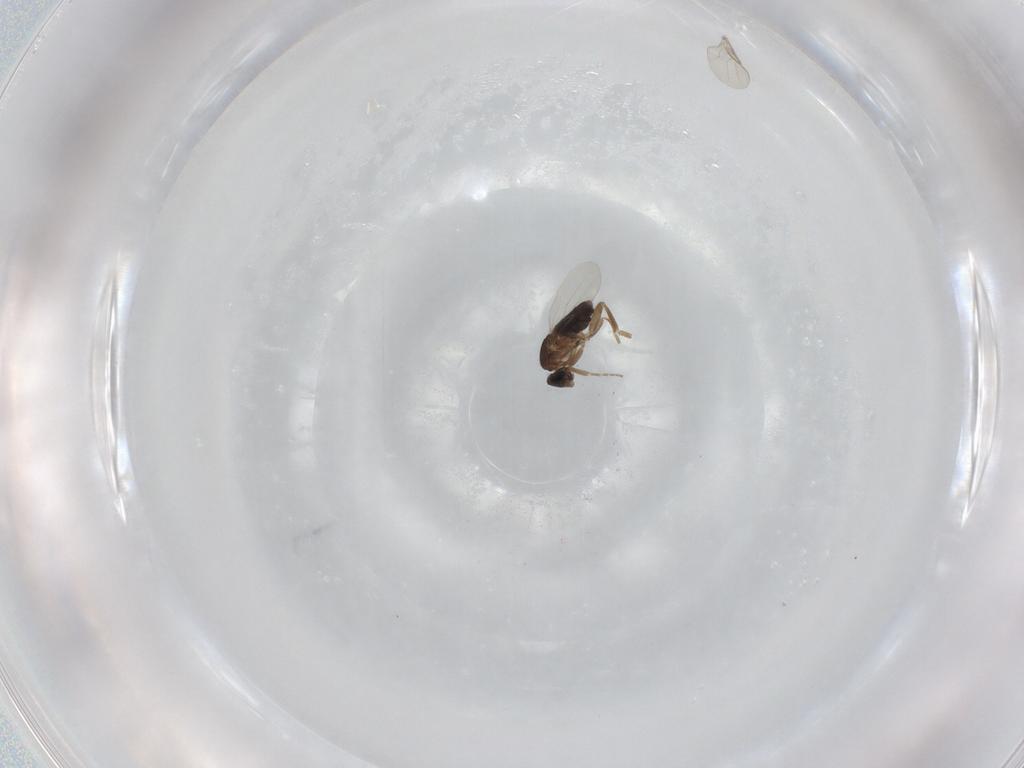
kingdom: Animalia
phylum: Arthropoda
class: Insecta
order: Diptera
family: Phoridae
